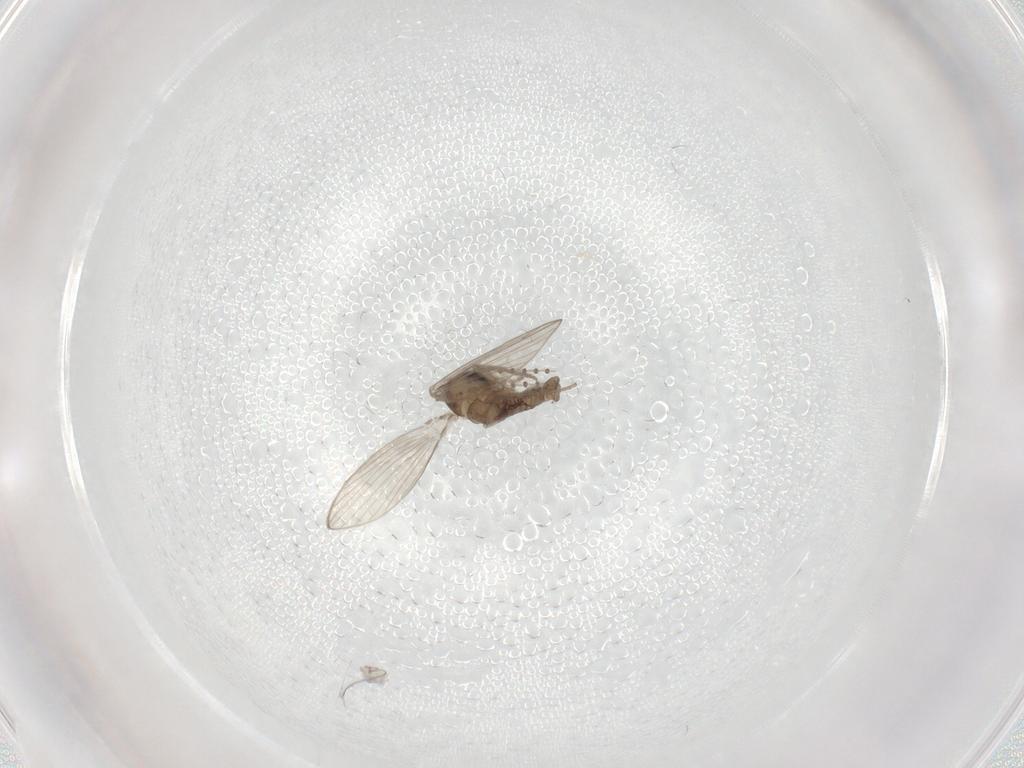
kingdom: Animalia
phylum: Arthropoda
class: Insecta
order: Diptera
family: Psychodidae
